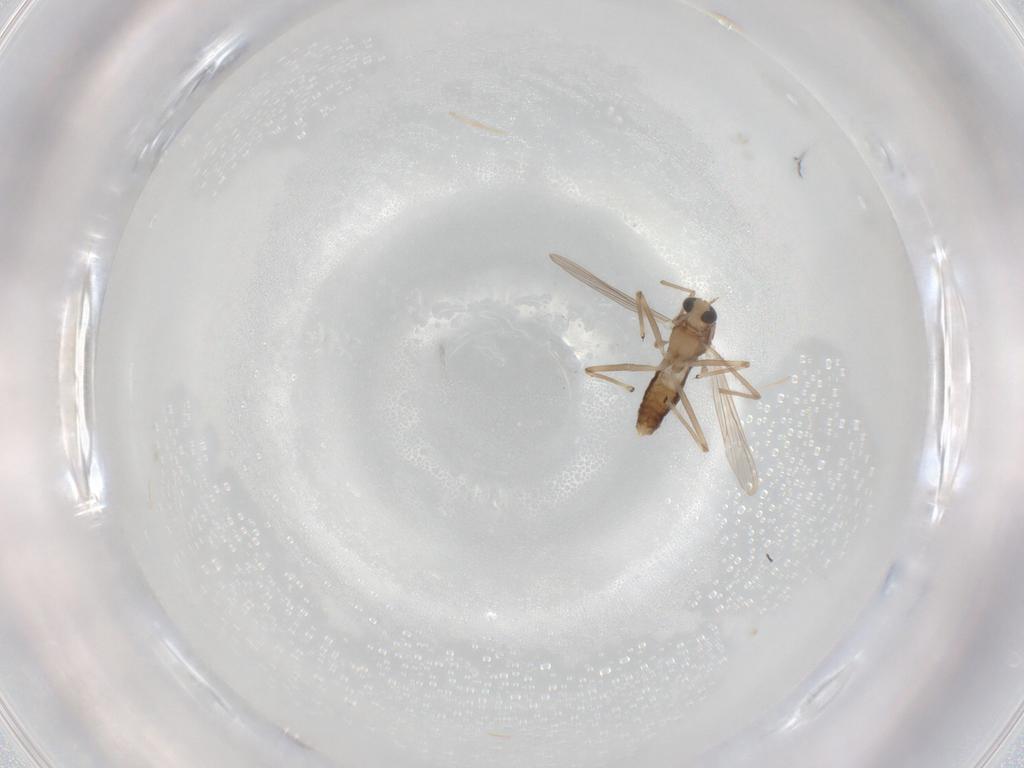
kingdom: Animalia
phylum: Arthropoda
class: Insecta
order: Diptera
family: Chironomidae
